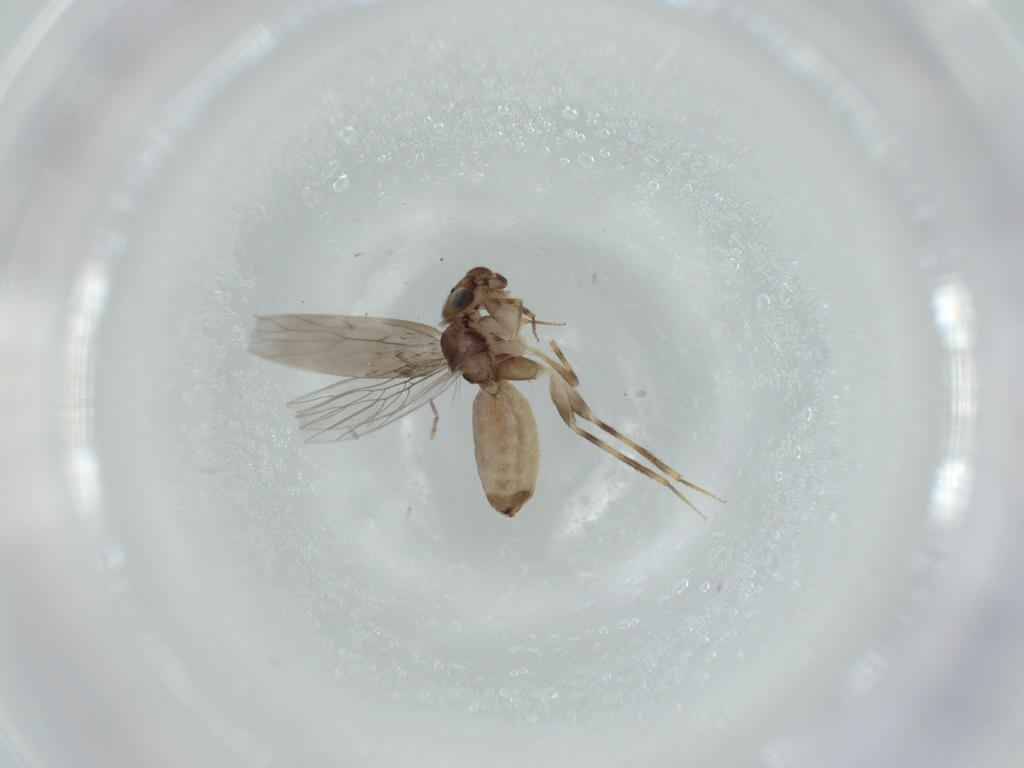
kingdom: Animalia
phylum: Arthropoda
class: Insecta
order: Psocodea
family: Lepidopsocidae
